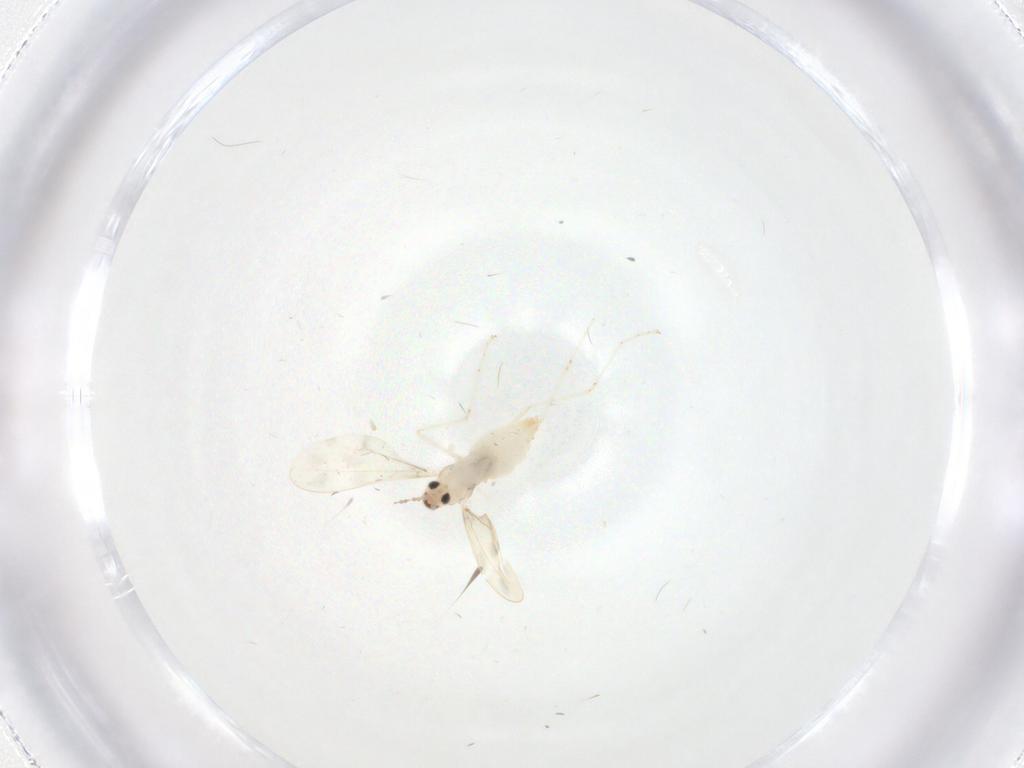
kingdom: Animalia
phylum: Arthropoda
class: Insecta
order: Diptera
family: Cecidomyiidae
